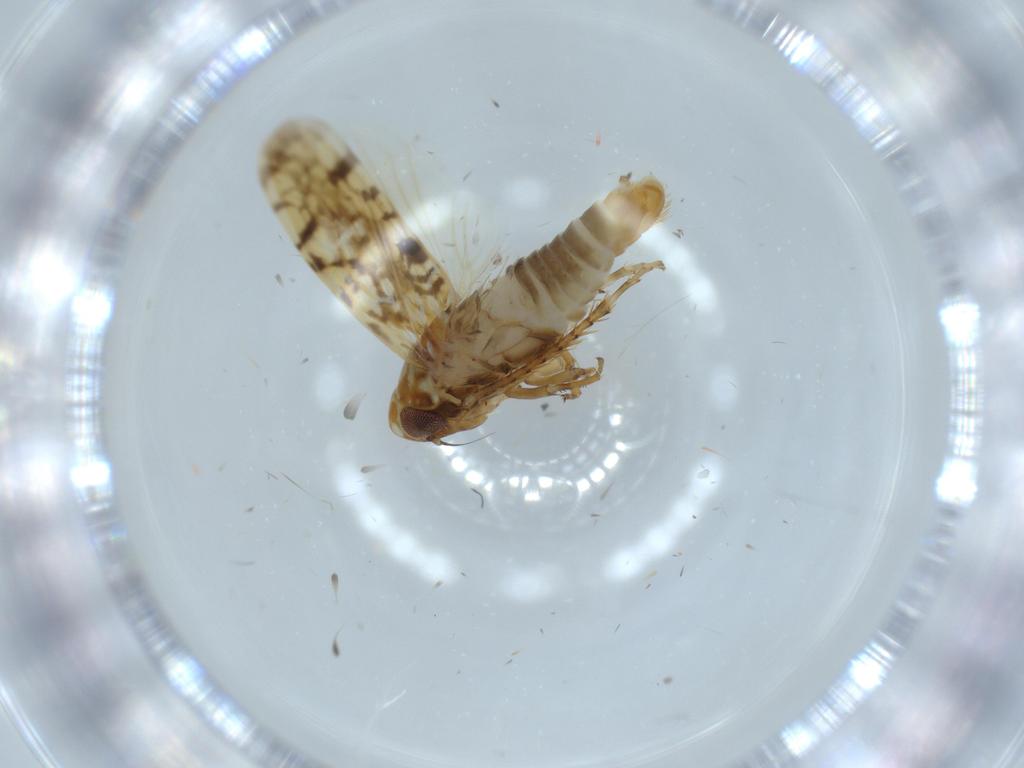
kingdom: Animalia
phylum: Arthropoda
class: Insecta
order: Hemiptera
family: Cicadellidae
